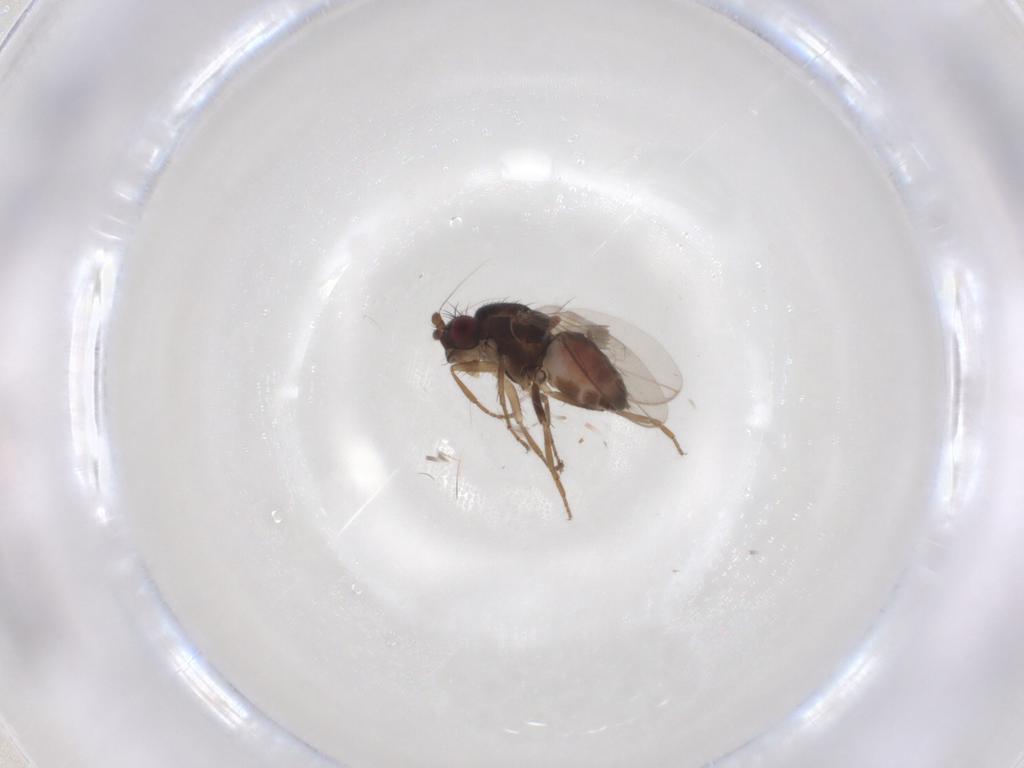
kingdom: Animalia
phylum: Arthropoda
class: Insecta
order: Diptera
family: Sphaeroceridae
